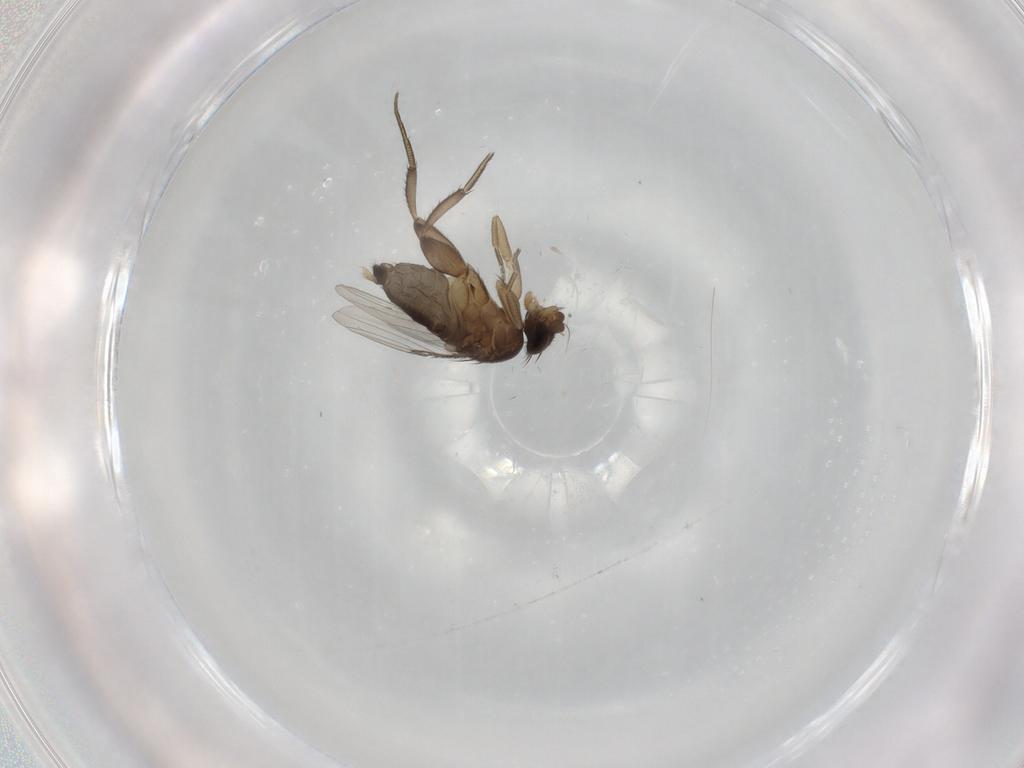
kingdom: Animalia
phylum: Arthropoda
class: Insecta
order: Diptera
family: Phoridae
